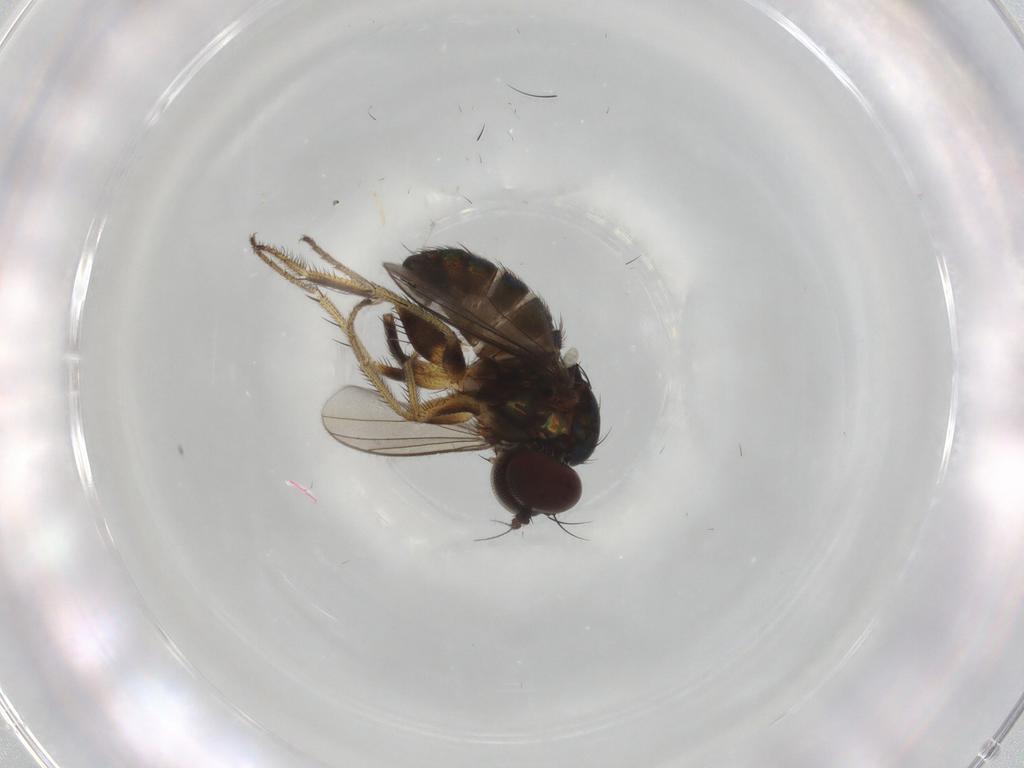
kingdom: Animalia
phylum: Arthropoda
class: Insecta
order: Diptera
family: Dolichopodidae
